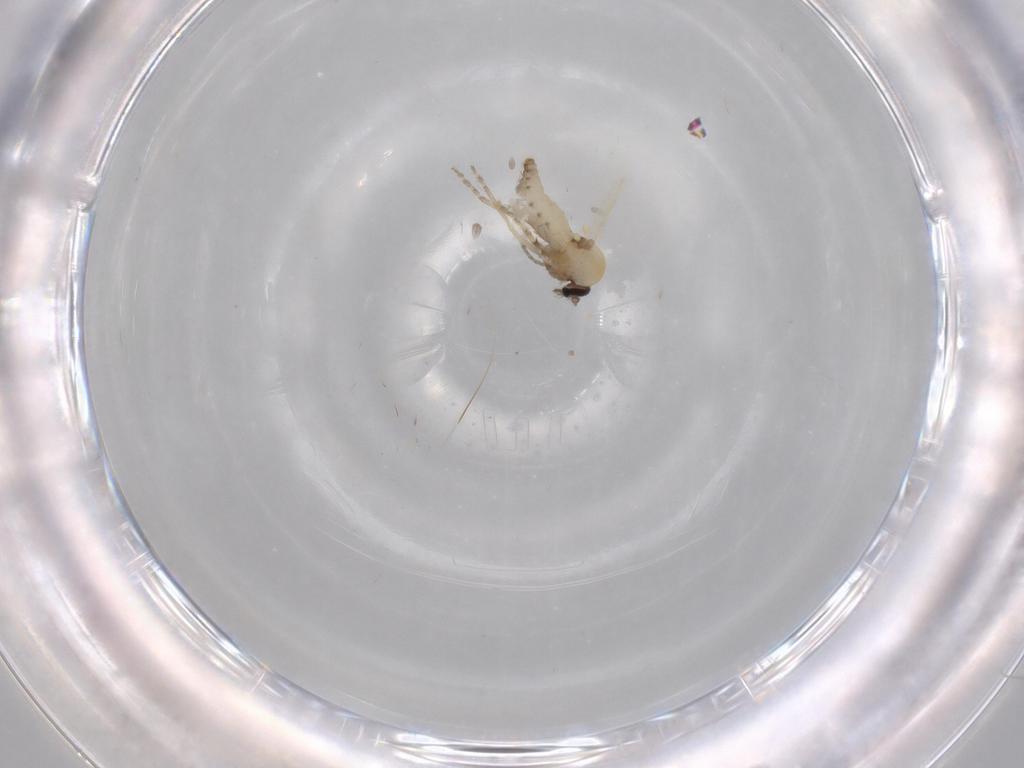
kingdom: Animalia
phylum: Arthropoda
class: Insecta
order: Diptera
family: Ceratopogonidae
